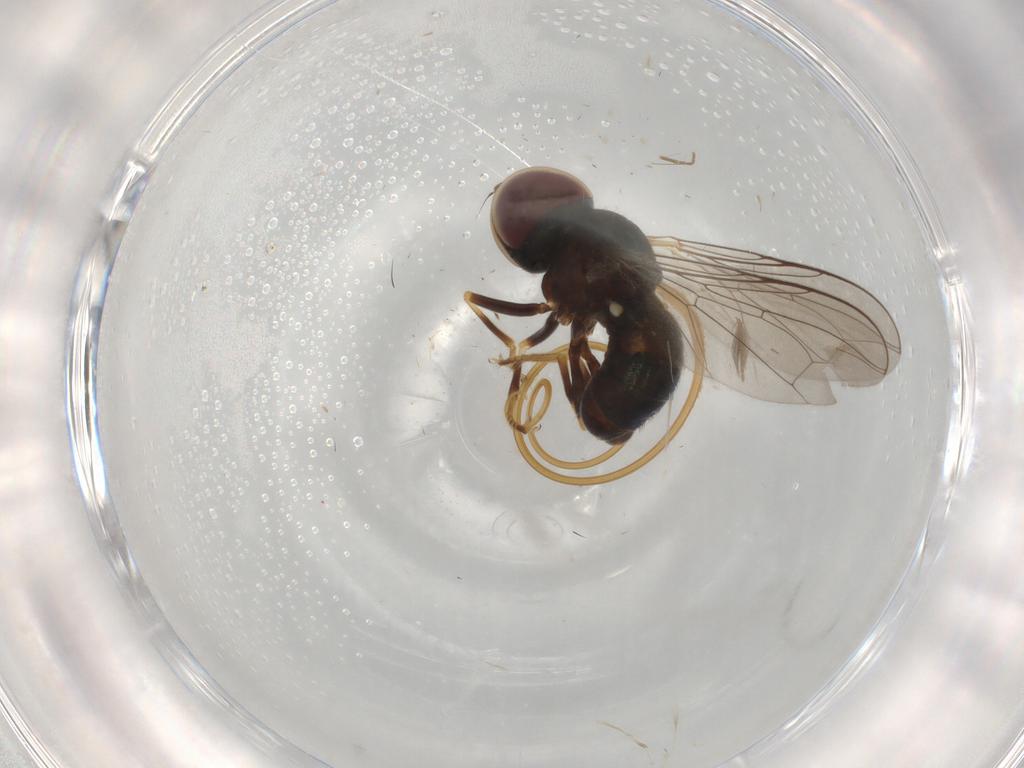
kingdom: Animalia
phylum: Arthropoda
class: Insecta
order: Diptera
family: Pipunculidae
